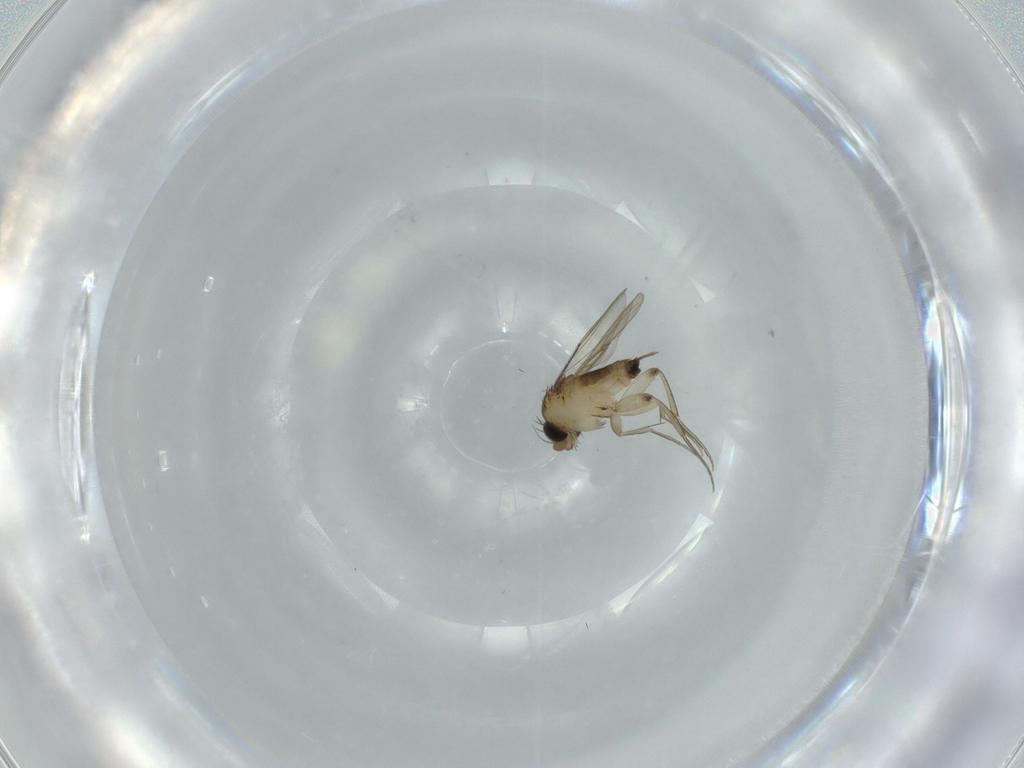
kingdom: Animalia
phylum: Arthropoda
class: Insecta
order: Diptera
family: Phoridae
